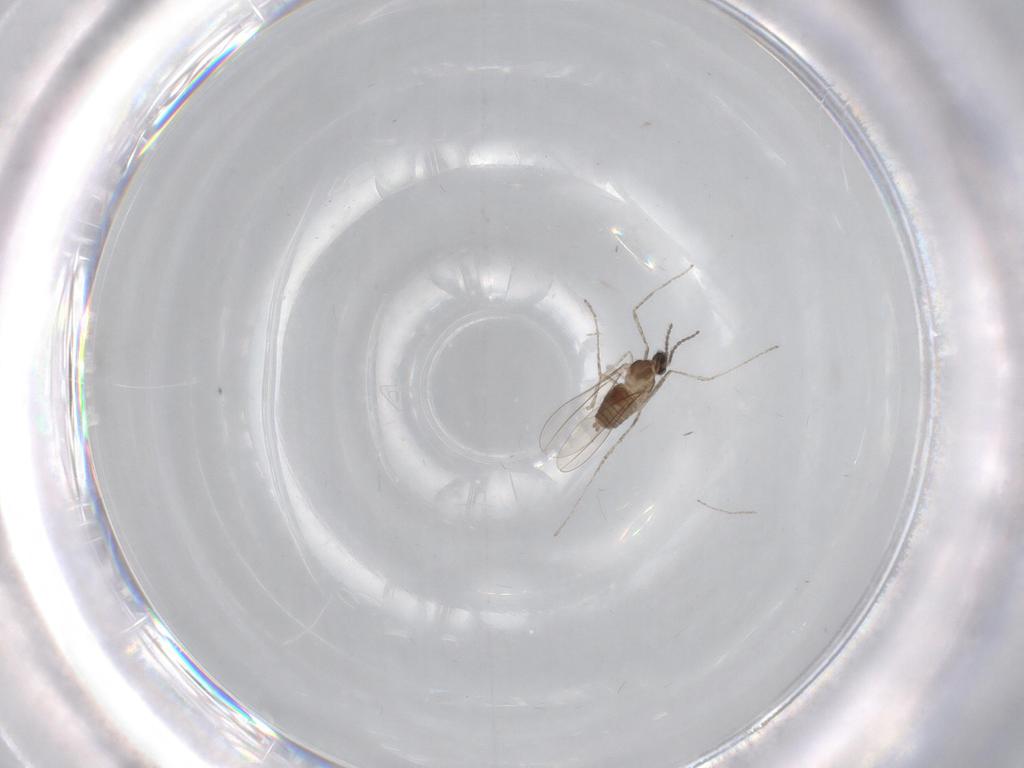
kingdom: Animalia
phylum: Arthropoda
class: Insecta
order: Diptera
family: Cecidomyiidae
